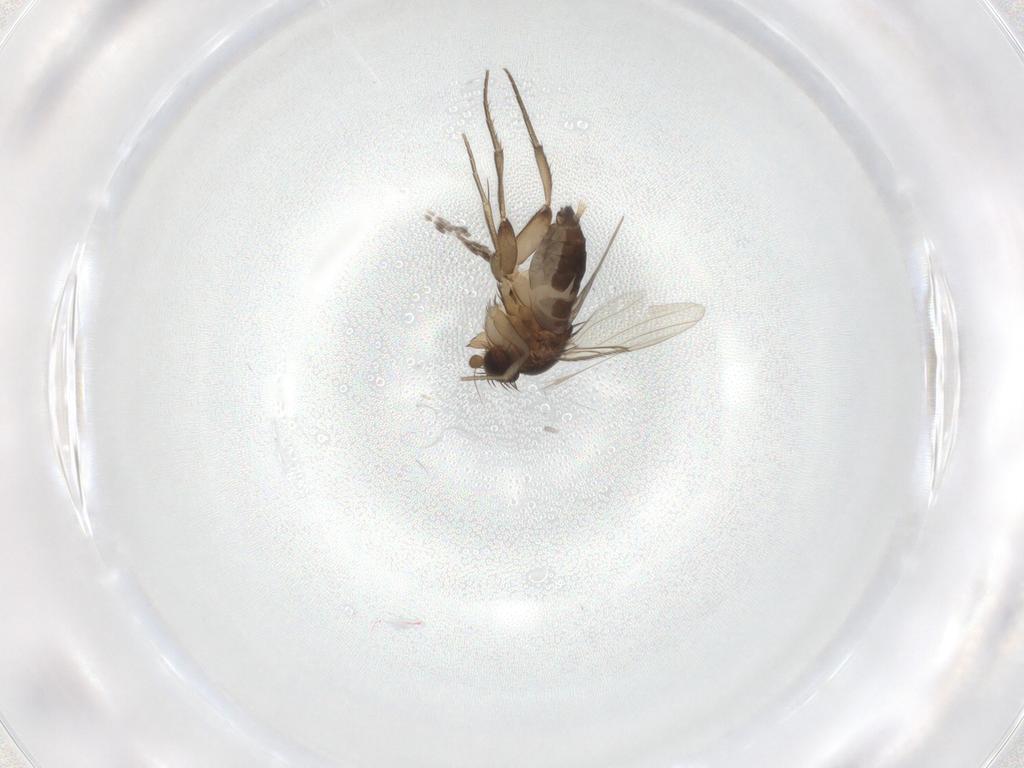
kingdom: Animalia
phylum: Arthropoda
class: Insecta
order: Diptera
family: Phoridae
